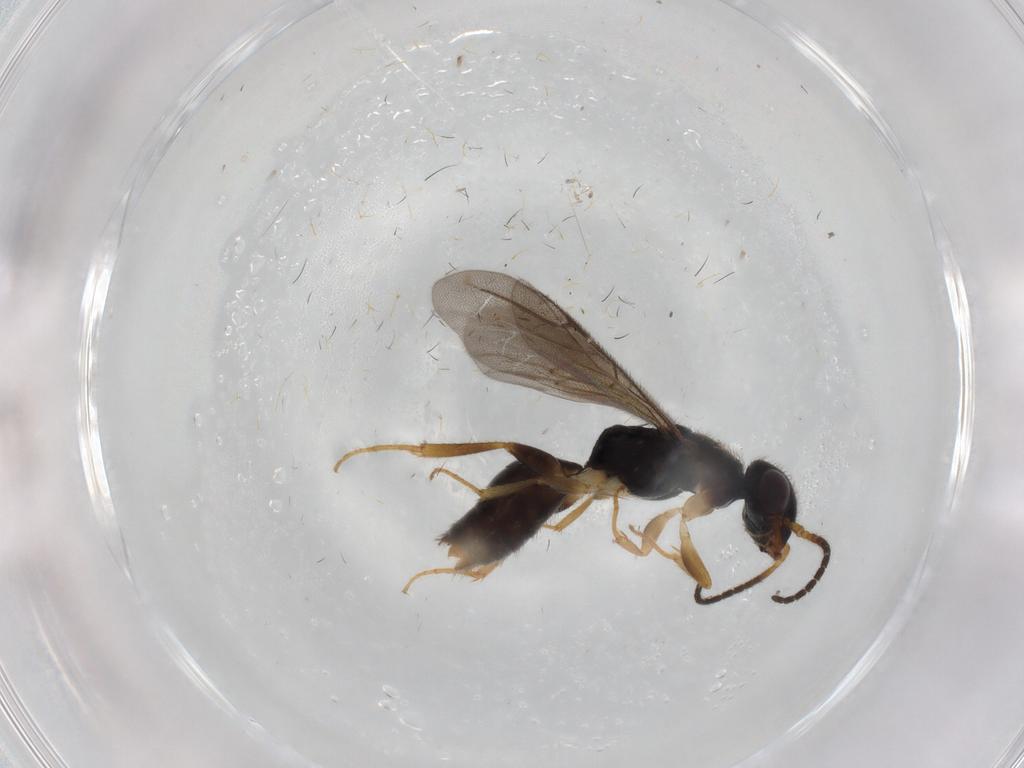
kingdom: Animalia
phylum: Arthropoda
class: Insecta
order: Hymenoptera
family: Bethylidae
